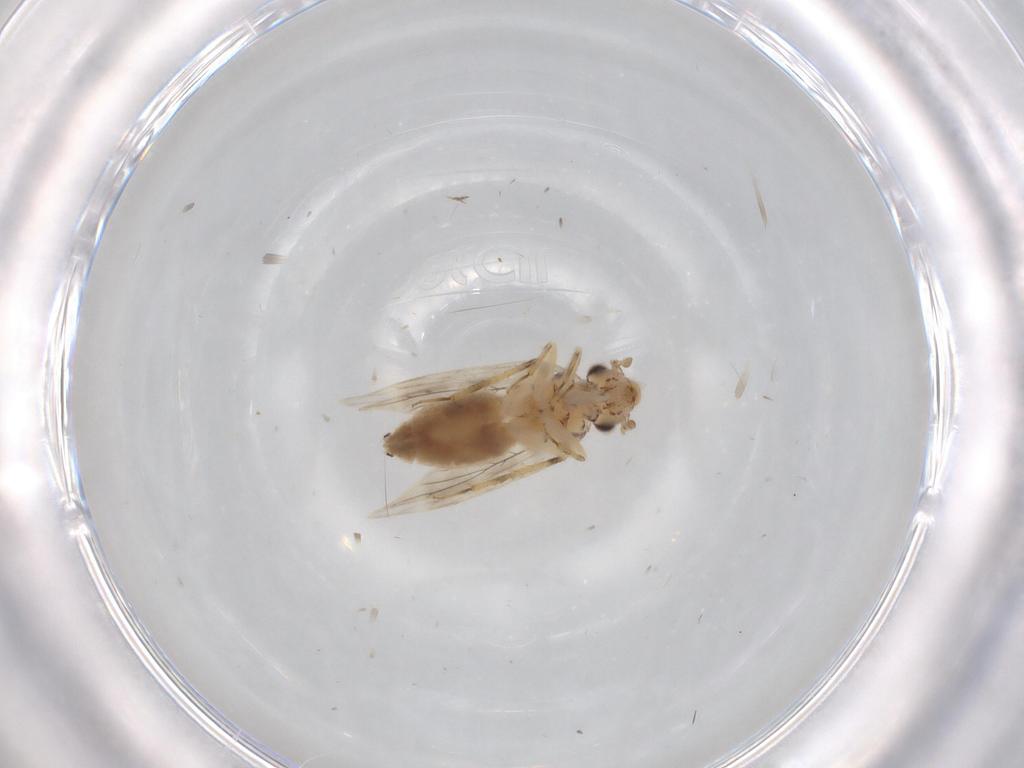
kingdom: Animalia
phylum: Arthropoda
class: Insecta
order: Psocodea
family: Lepidopsocidae
